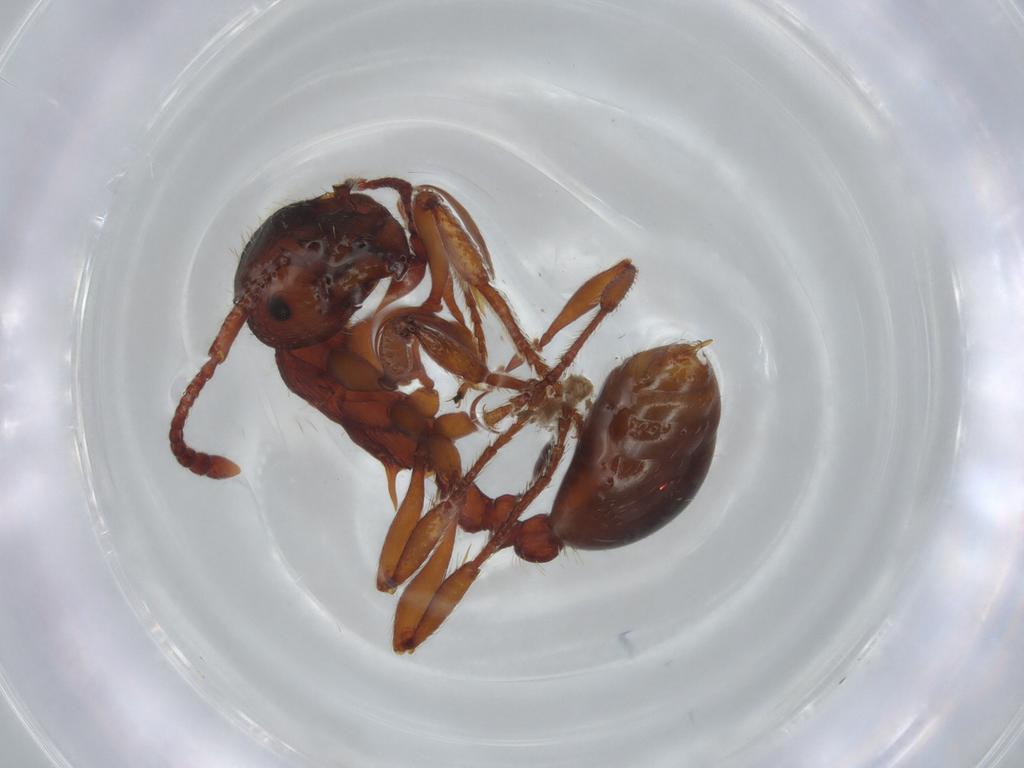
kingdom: Animalia
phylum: Arthropoda
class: Insecta
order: Hymenoptera
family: Formicidae
